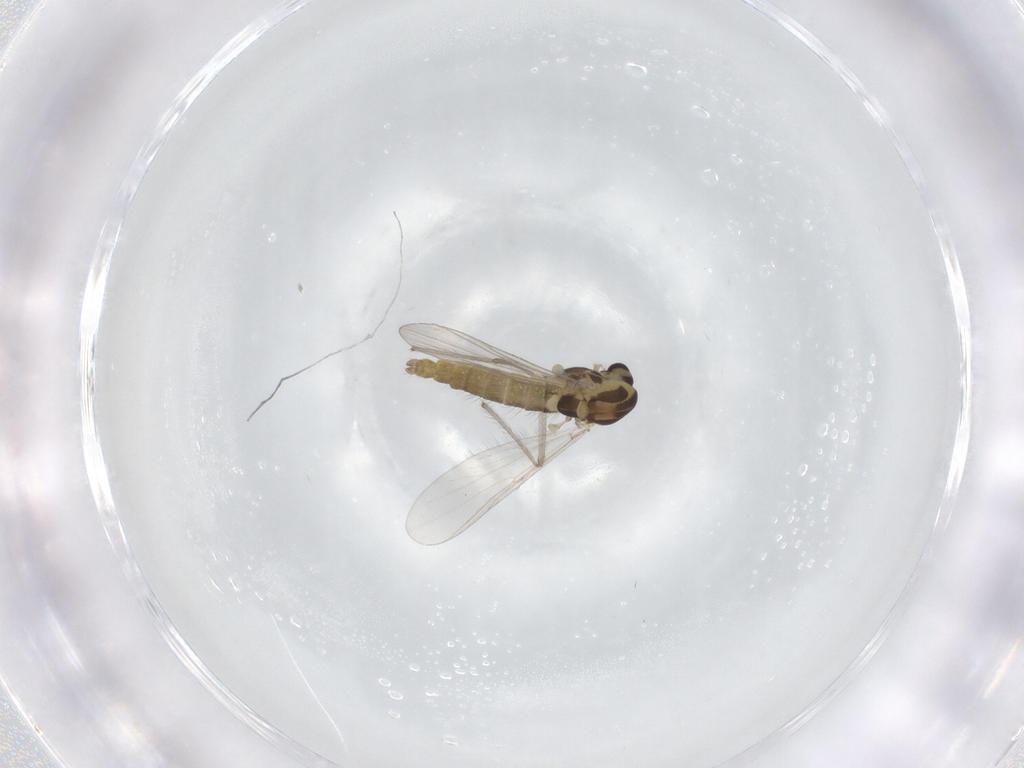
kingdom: Animalia
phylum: Arthropoda
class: Insecta
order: Diptera
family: Chironomidae
